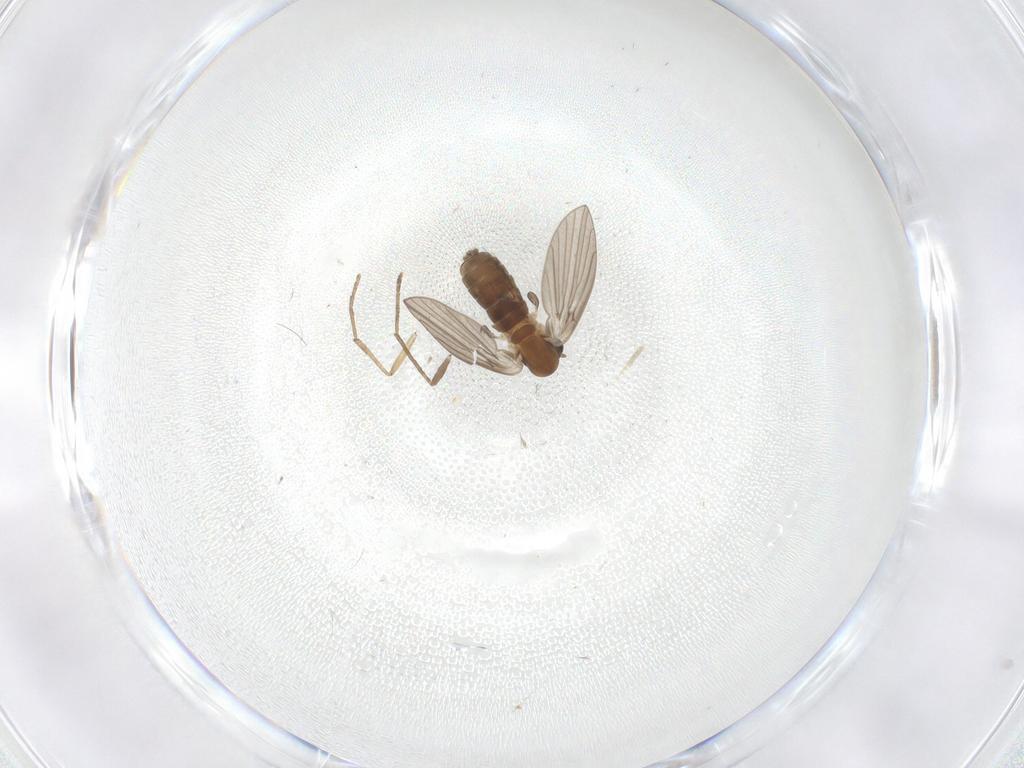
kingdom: Animalia
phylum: Arthropoda
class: Insecta
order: Diptera
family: Psychodidae
